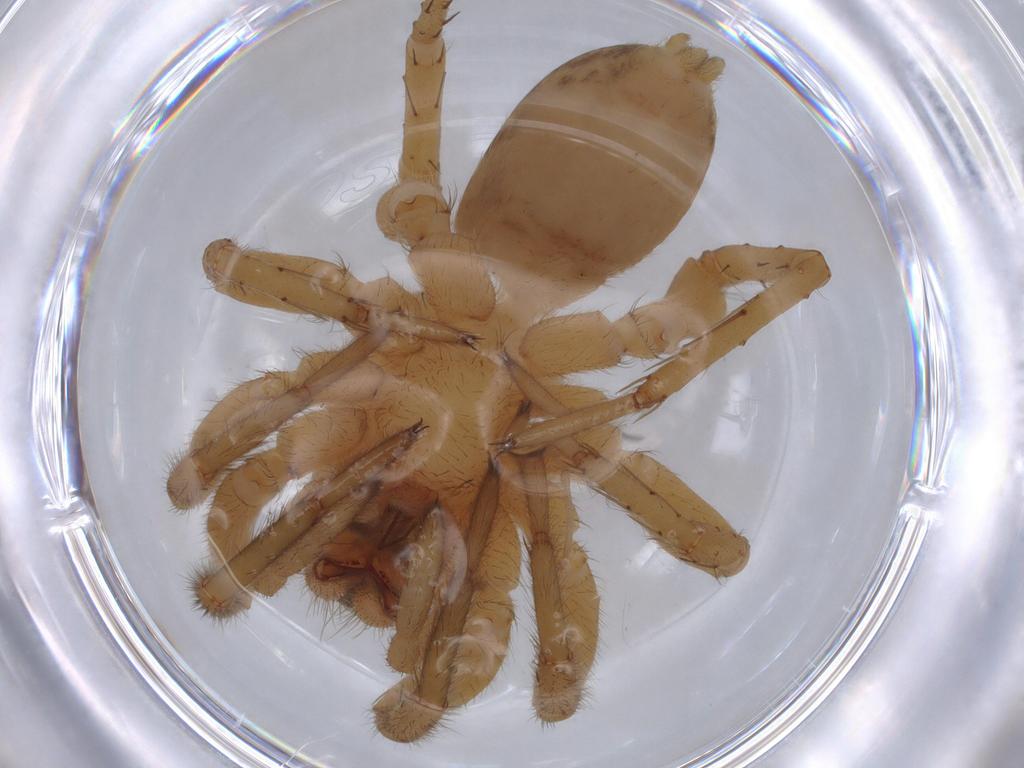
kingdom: Animalia
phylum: Arthropoda
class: Arachnida
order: Araneae
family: Lycosidae
